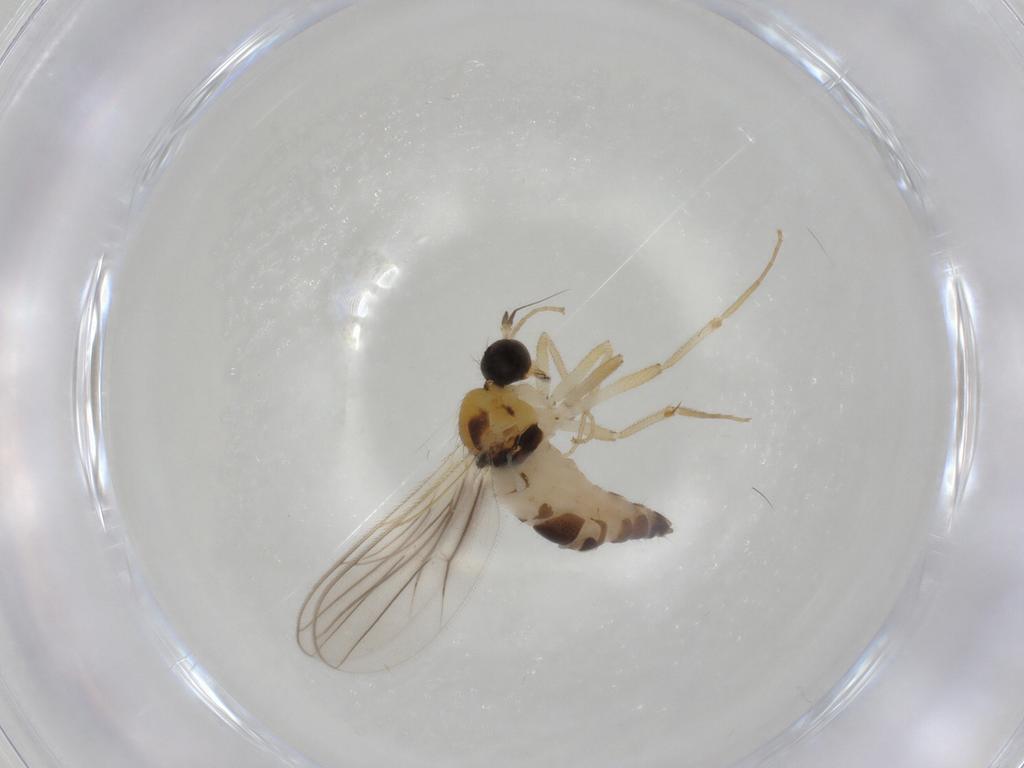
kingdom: Animalia
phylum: Arthropoda
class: Insecta
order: Diptera
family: Hybotidae
